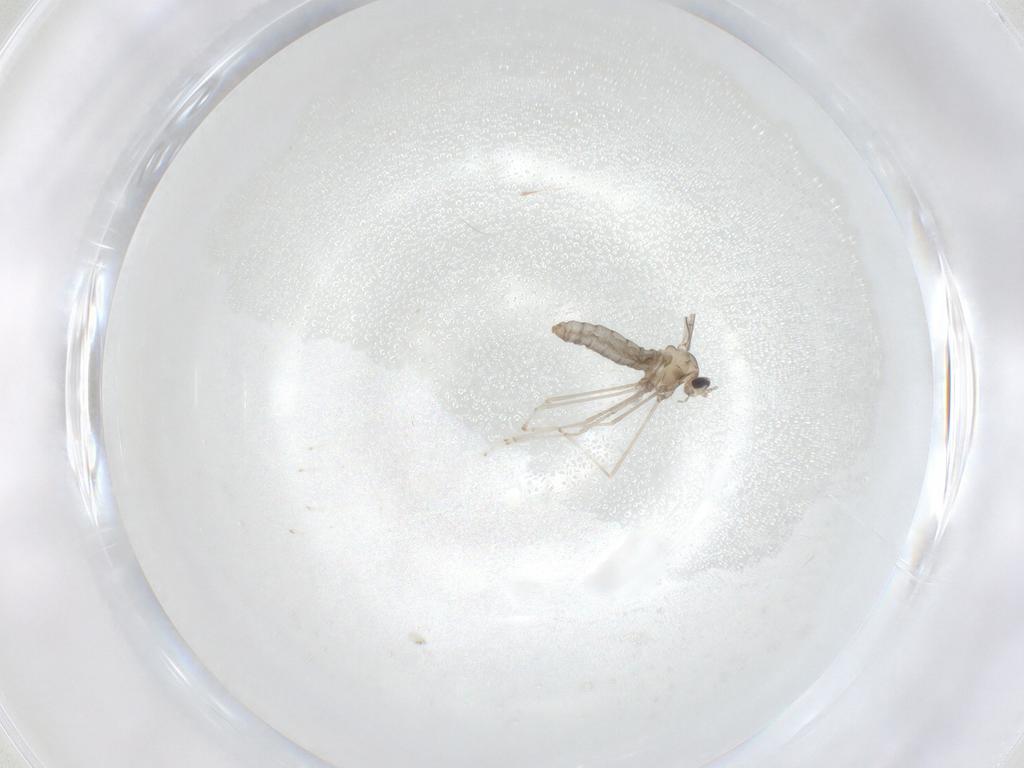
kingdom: Animalia
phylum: Arthropoda
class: Insecta
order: Diptera
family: Cecidomyiidae
